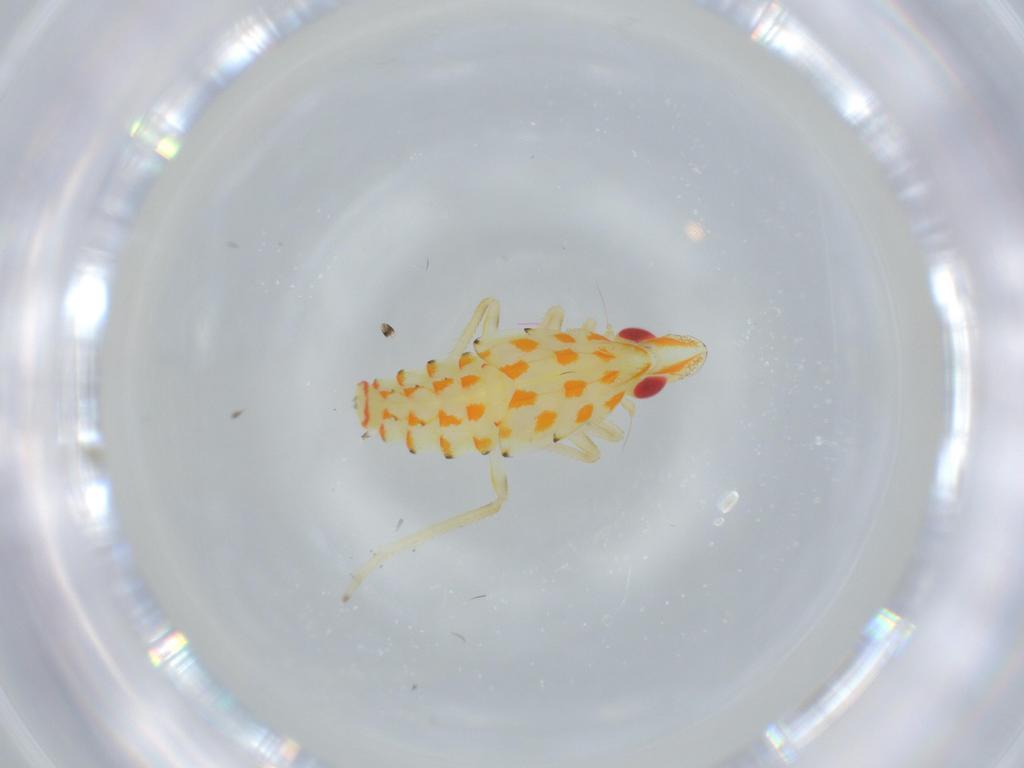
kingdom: Animalia
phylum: Arthropoda
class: Insecta
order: Hemiptera
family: Tropiduchidae
